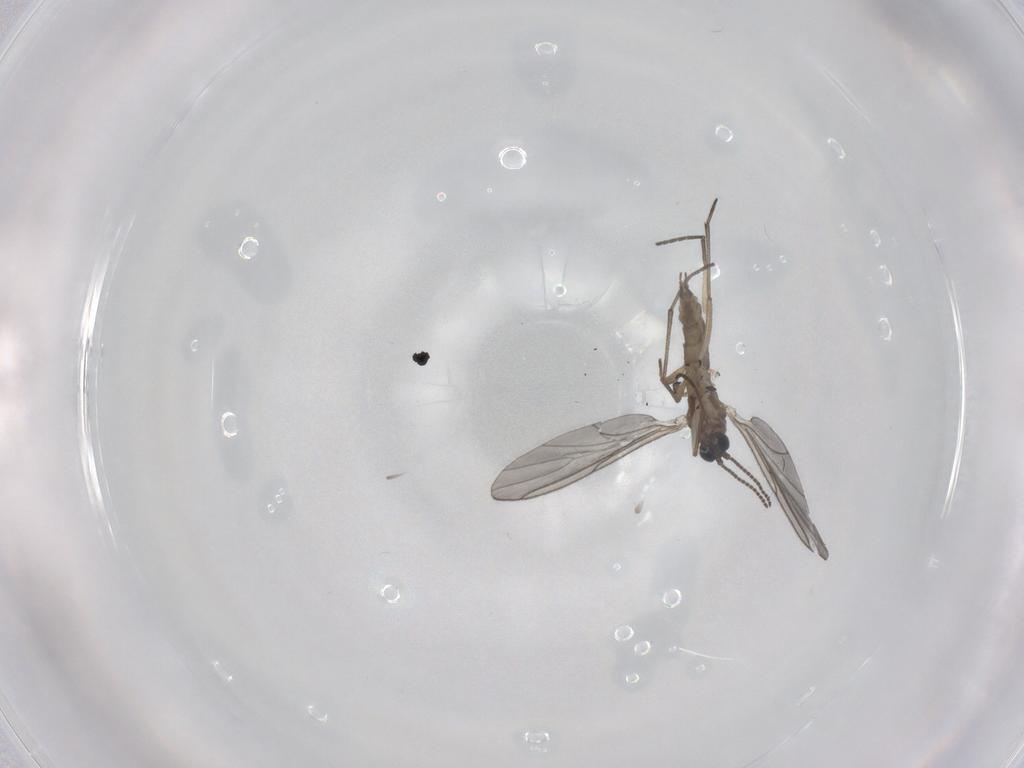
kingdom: Animalia
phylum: Arthropoda
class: Insecta
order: Diptera
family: Sciaridae
